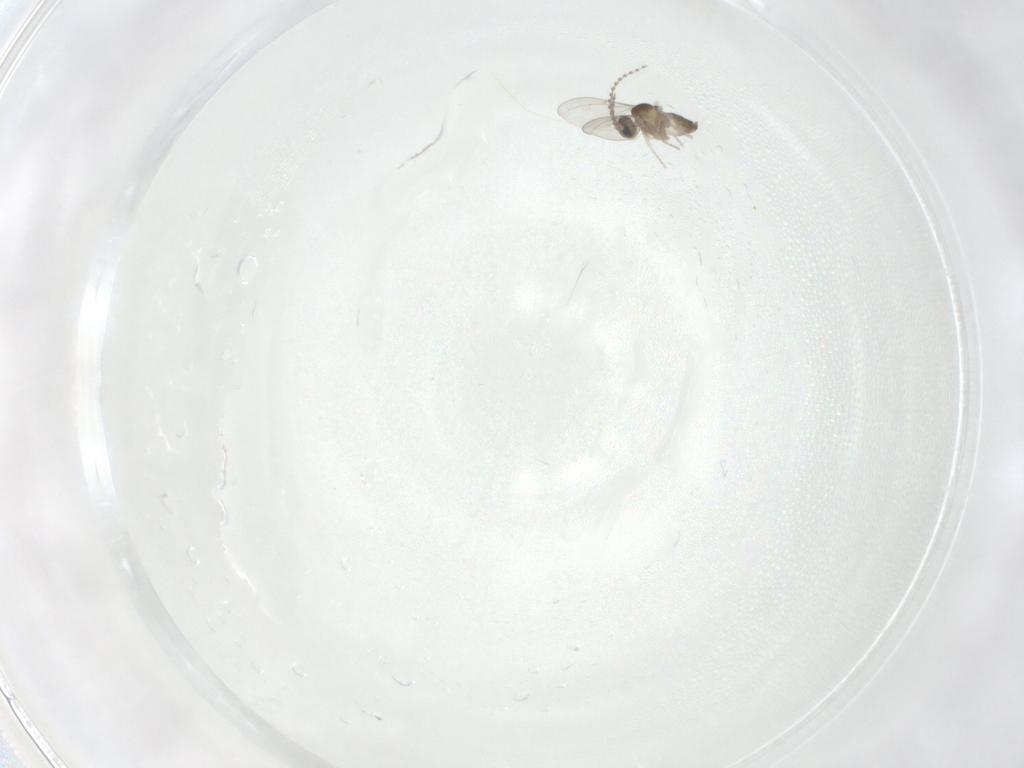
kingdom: Animalia
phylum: Arthropoda
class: Insecta
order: Diptera
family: Cecidomyiidae
